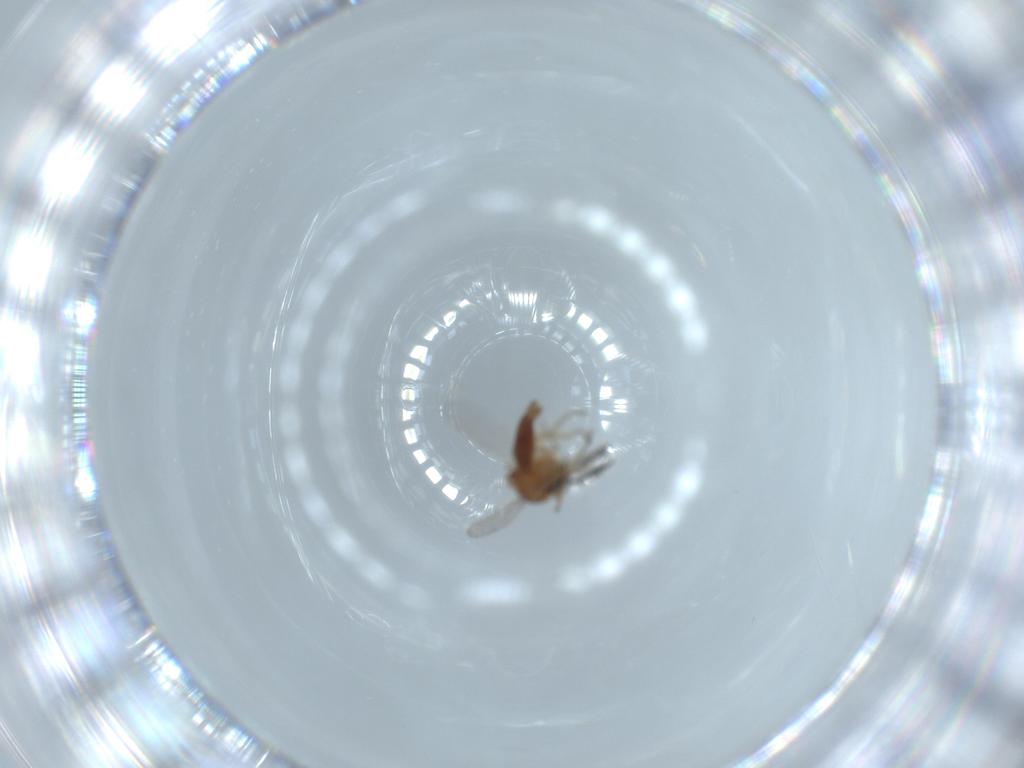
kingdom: Animalia
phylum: Arthropoda
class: Insecta
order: Diptera
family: Ceratopogonidae
